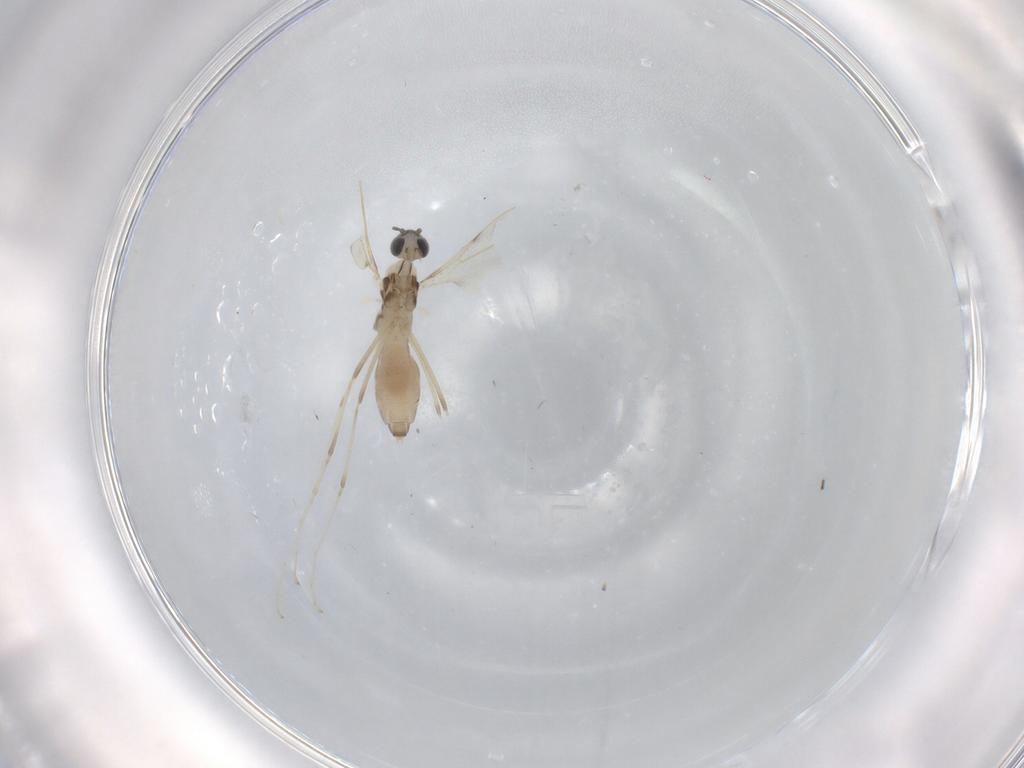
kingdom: Animalia
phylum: Arthropoda
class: Insecta
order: Diptera
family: Cecidomyiidae
